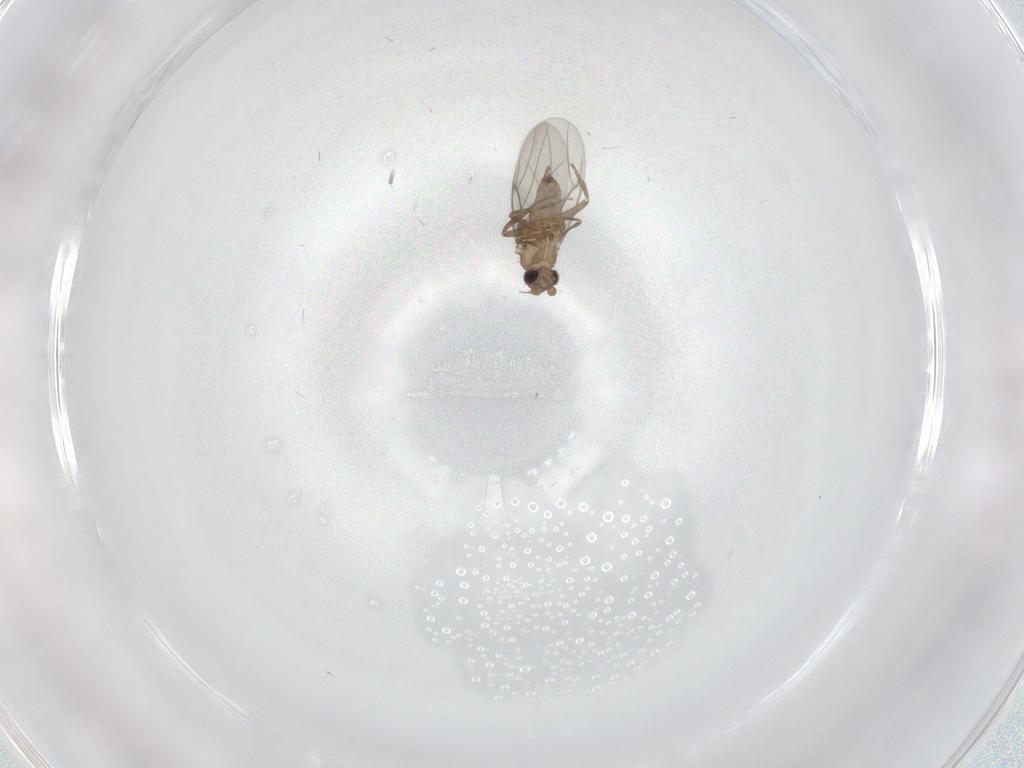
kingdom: Animalia
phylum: Arthropoda
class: Insecta
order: Diptera
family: Ceratopogonidae
